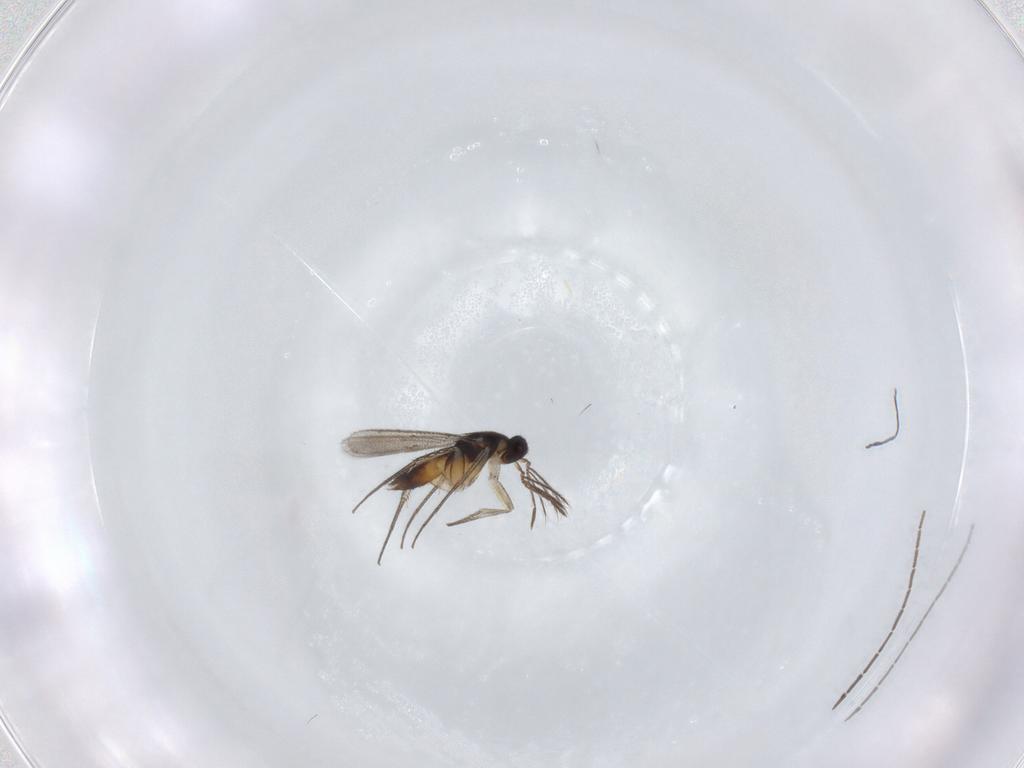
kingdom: Animalia
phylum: Arthropoda
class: Insecta
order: Hymenoptera
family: Eulophidae
